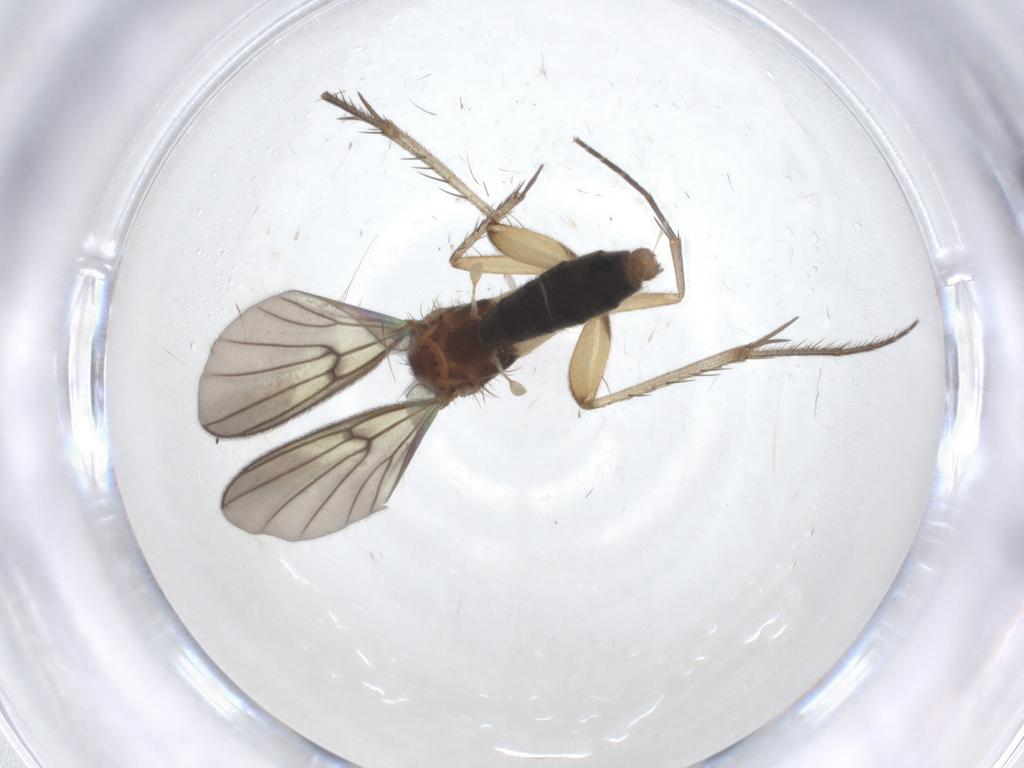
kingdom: Animalia
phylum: Arthropoda
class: Insecta
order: Diptera
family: Mycetophilidae
